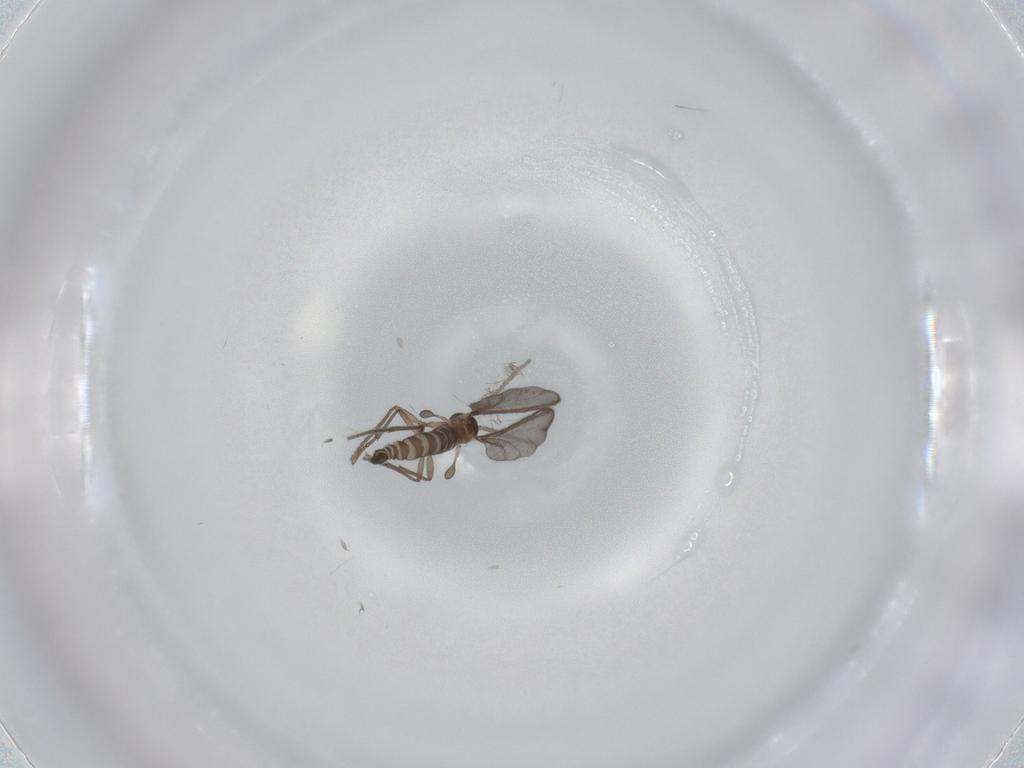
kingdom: Animalia
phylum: Arthropoda
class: Insecta
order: Diptera
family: Sciaridae
